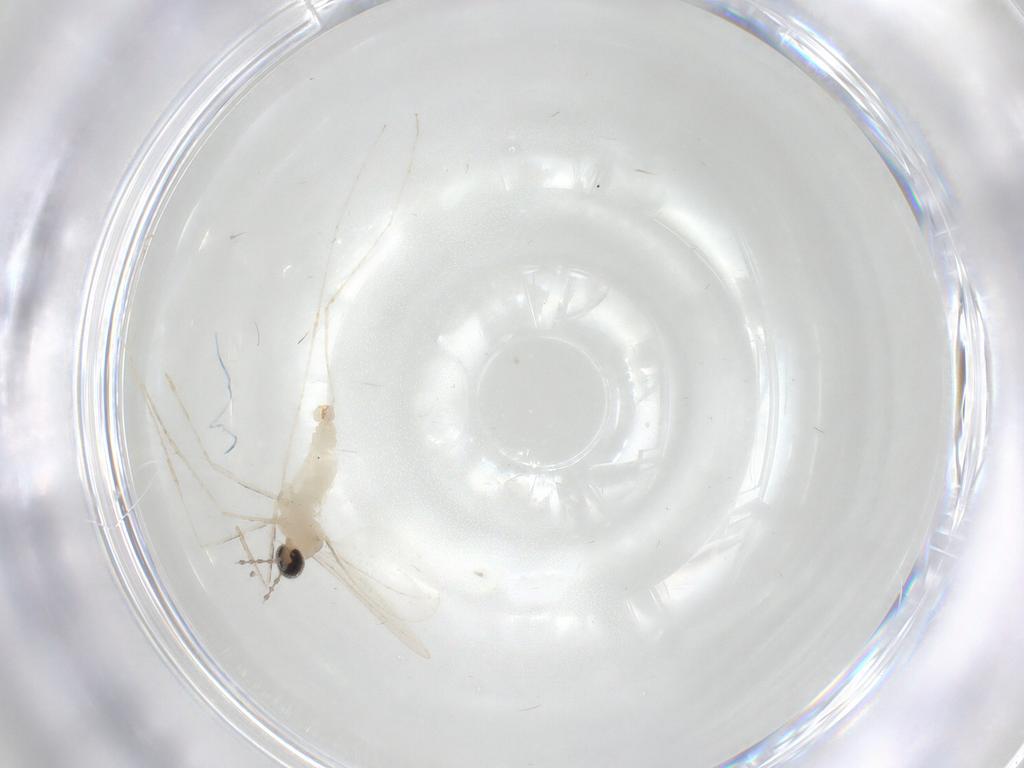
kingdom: Animalia
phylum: Arthropoda
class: Insecta
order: Diptera
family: Cecidomyiidae
